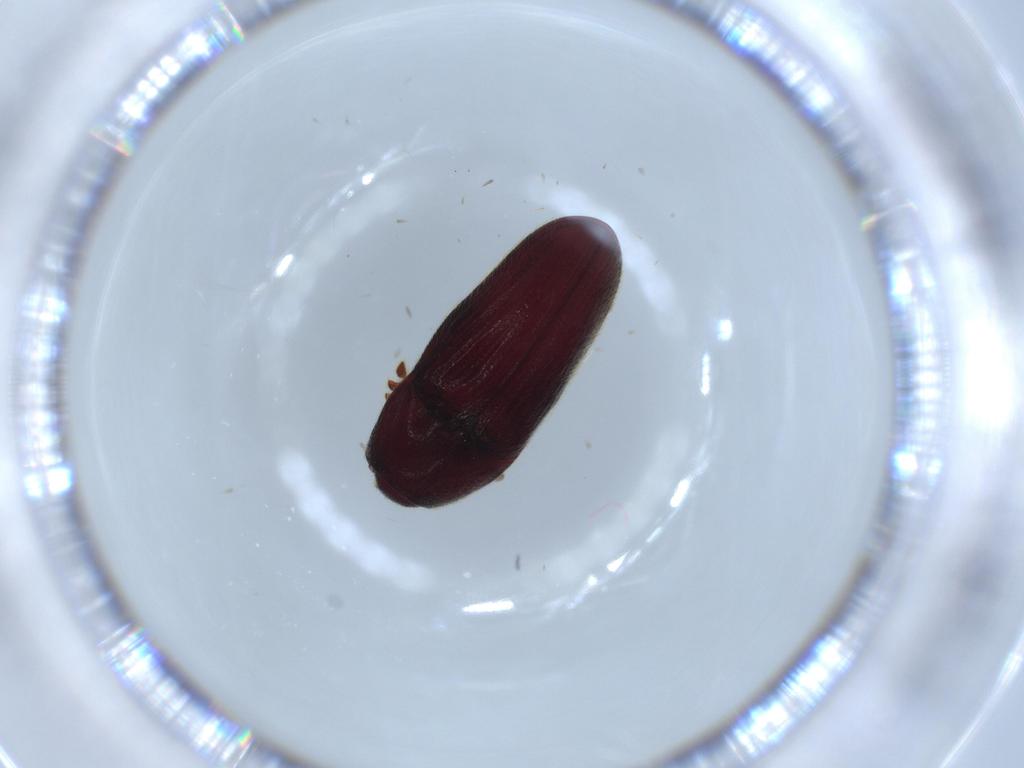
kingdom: Animalia
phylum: Arthropoda
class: Insecta
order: Coleoptera
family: Throscidae
